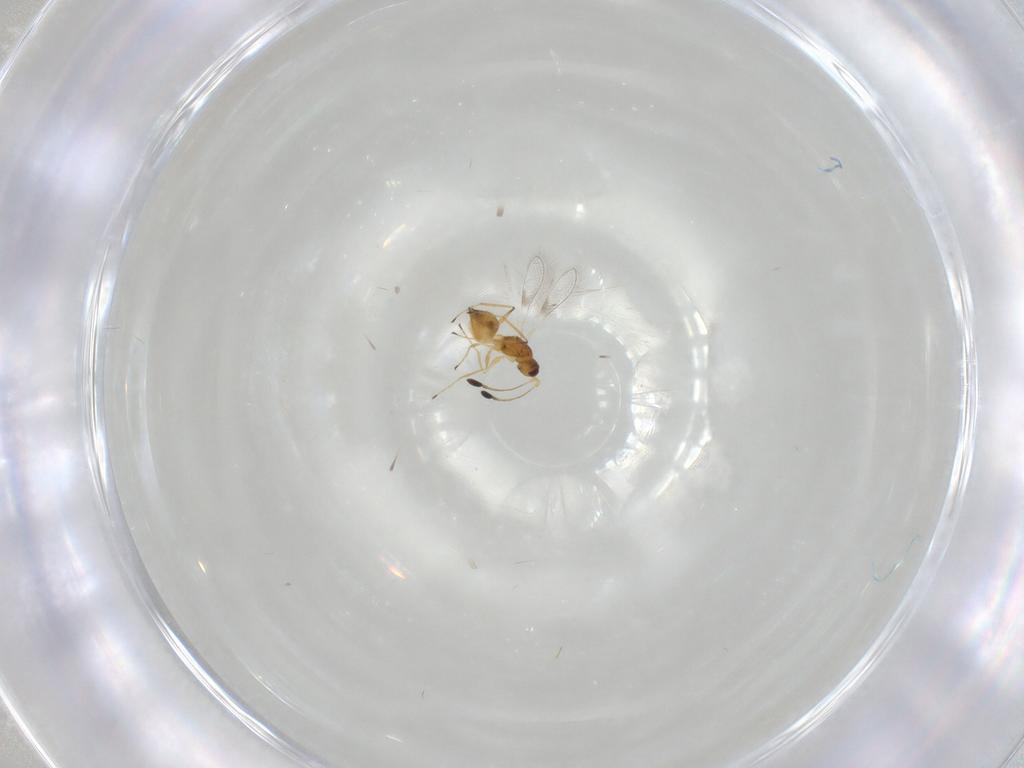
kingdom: Animalia
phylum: Arthropoda
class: Insecta
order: Hymenoptera
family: Mymaridae
